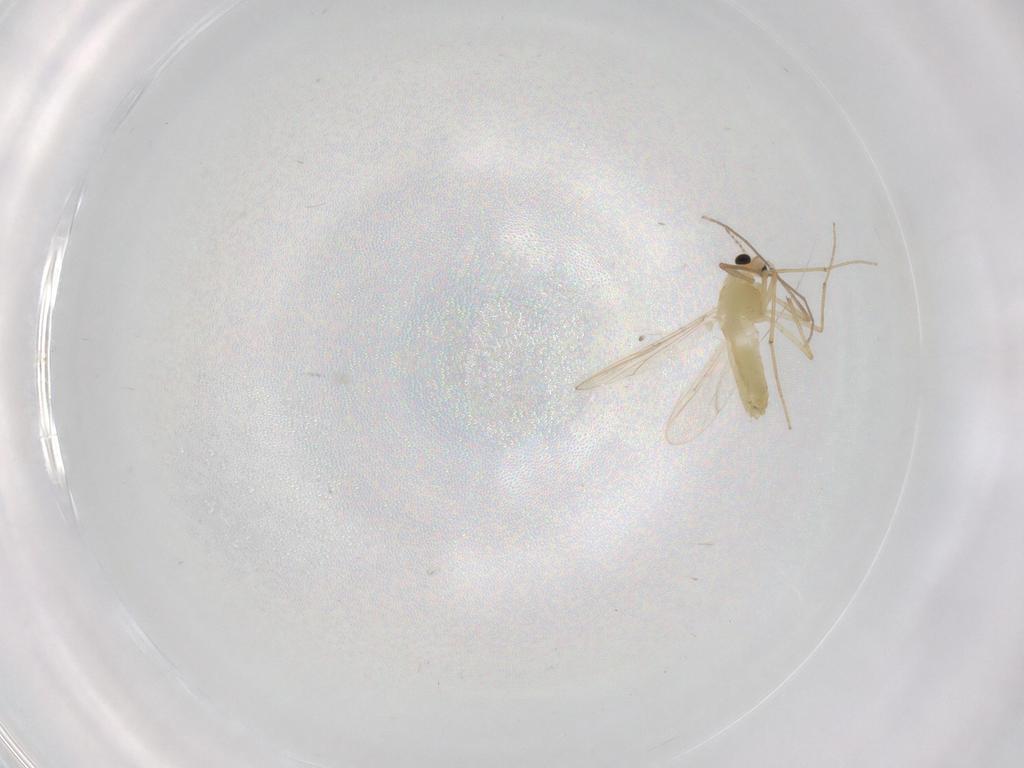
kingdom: Animalia
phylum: Arthropoda
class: Insecta
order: Diptera
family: Chironomidae
